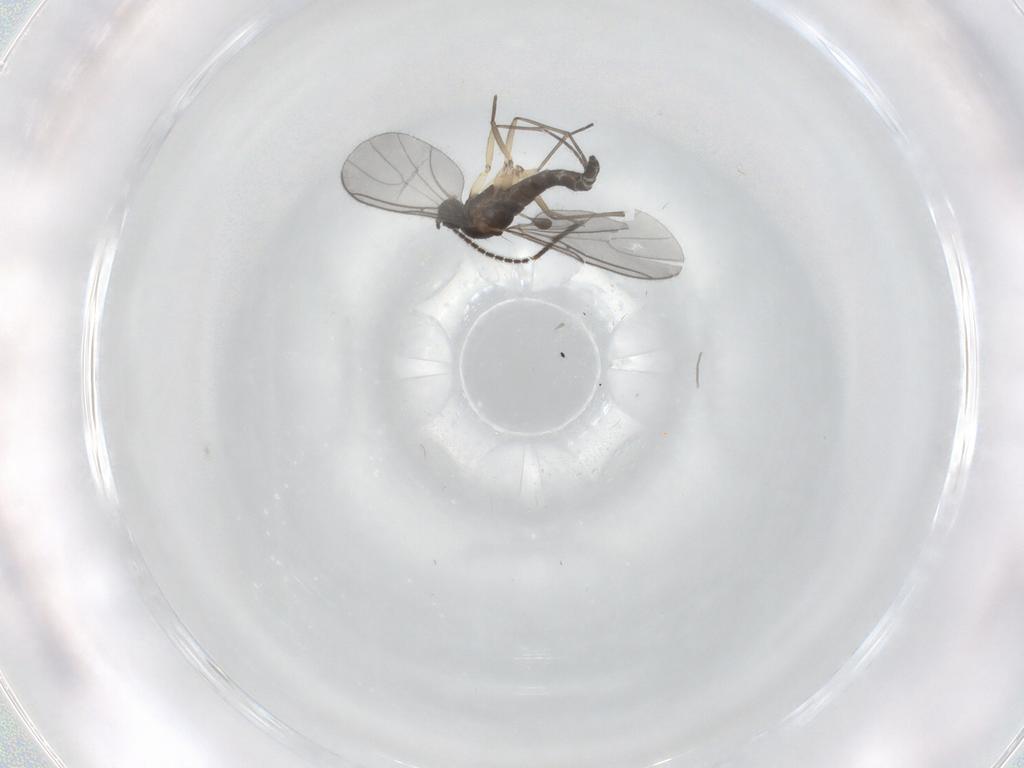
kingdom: Animalia
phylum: Arthropoda
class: Insecta
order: Diptera
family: Sciaridae
